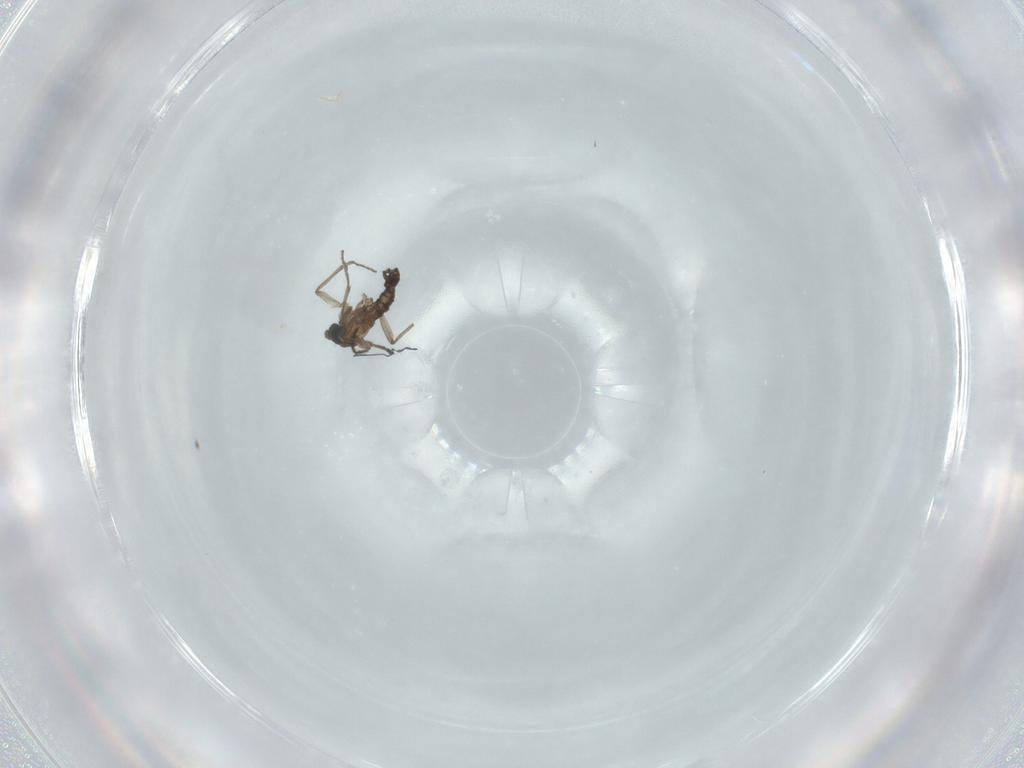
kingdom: Animalia
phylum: Arthropoda
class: Insecta
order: Diptera
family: Sciaridae
